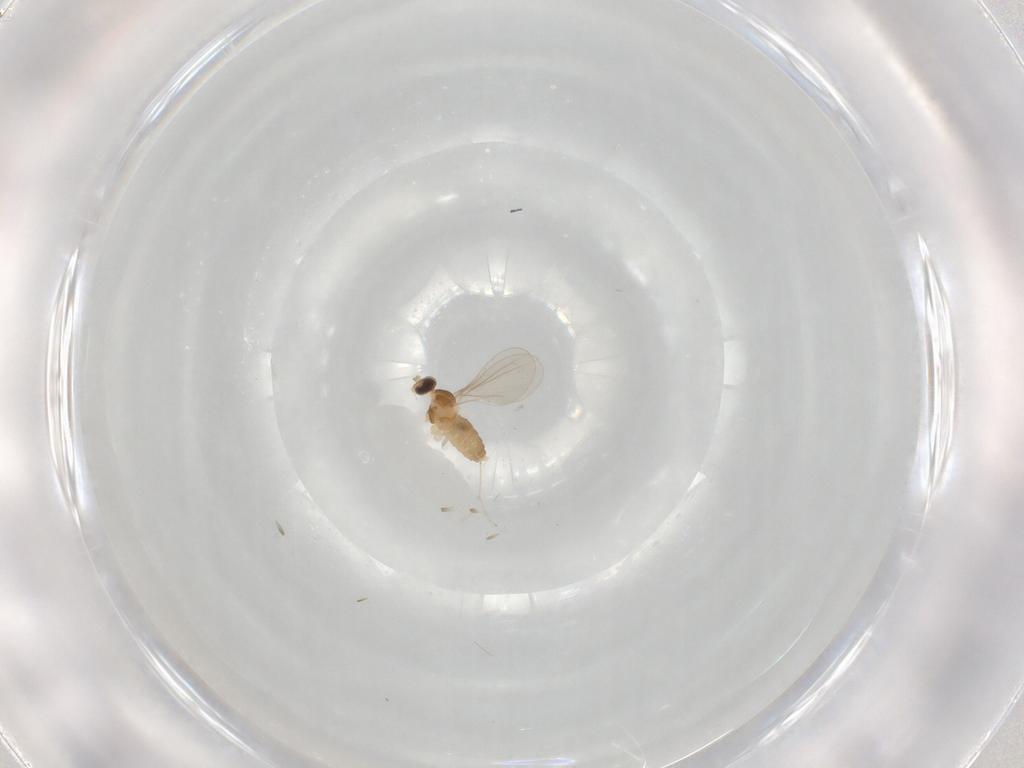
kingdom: Animalia
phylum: Arthropoda
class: Insecta
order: Diptera
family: Cecidomyiidae
